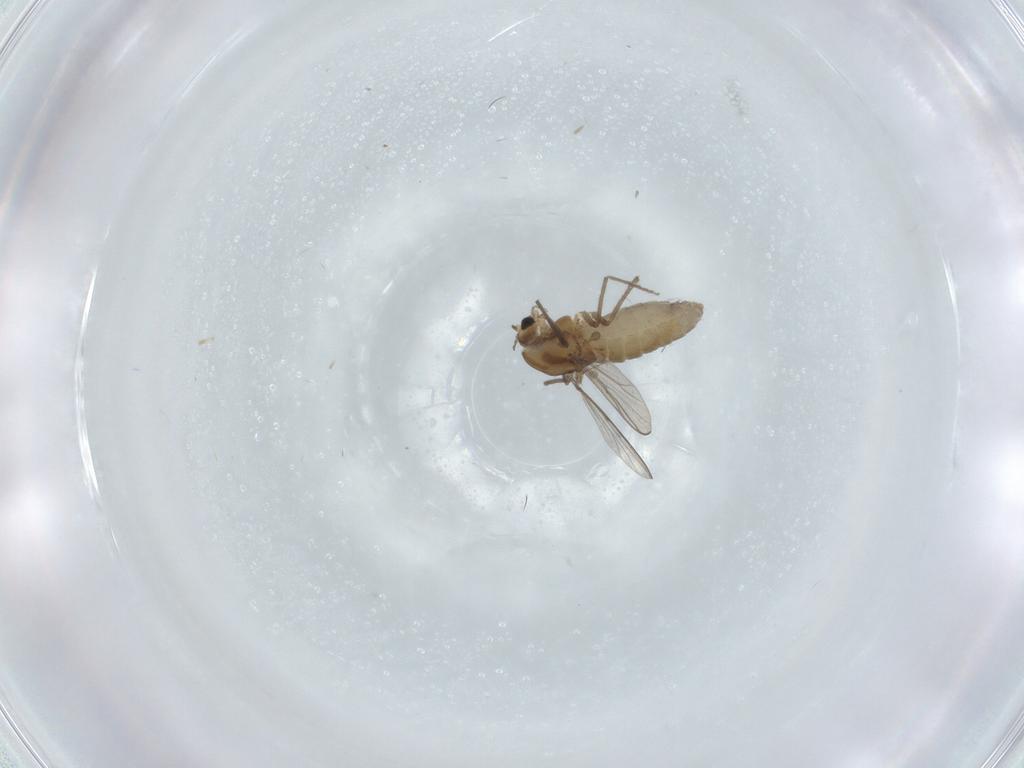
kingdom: Animalia
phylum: Arthropoda
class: Insecta
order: Diptera
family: Chironomidae
